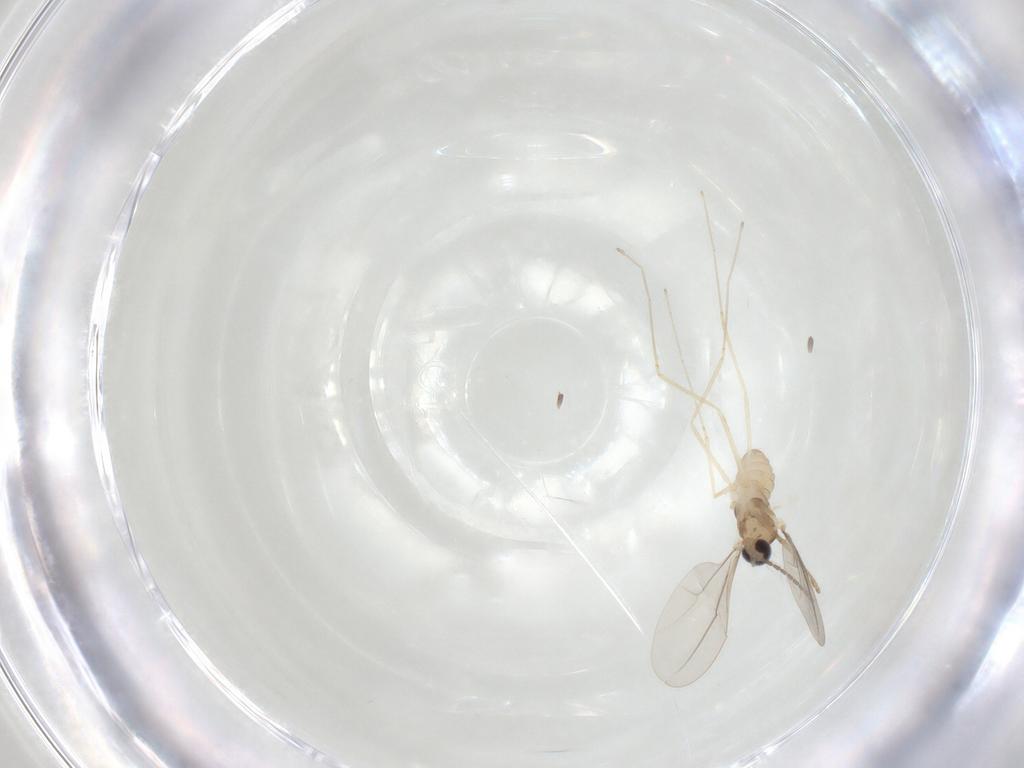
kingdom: Animalia
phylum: Arthropoda
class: Insecta
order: Diptera
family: Cecidomyiidae
